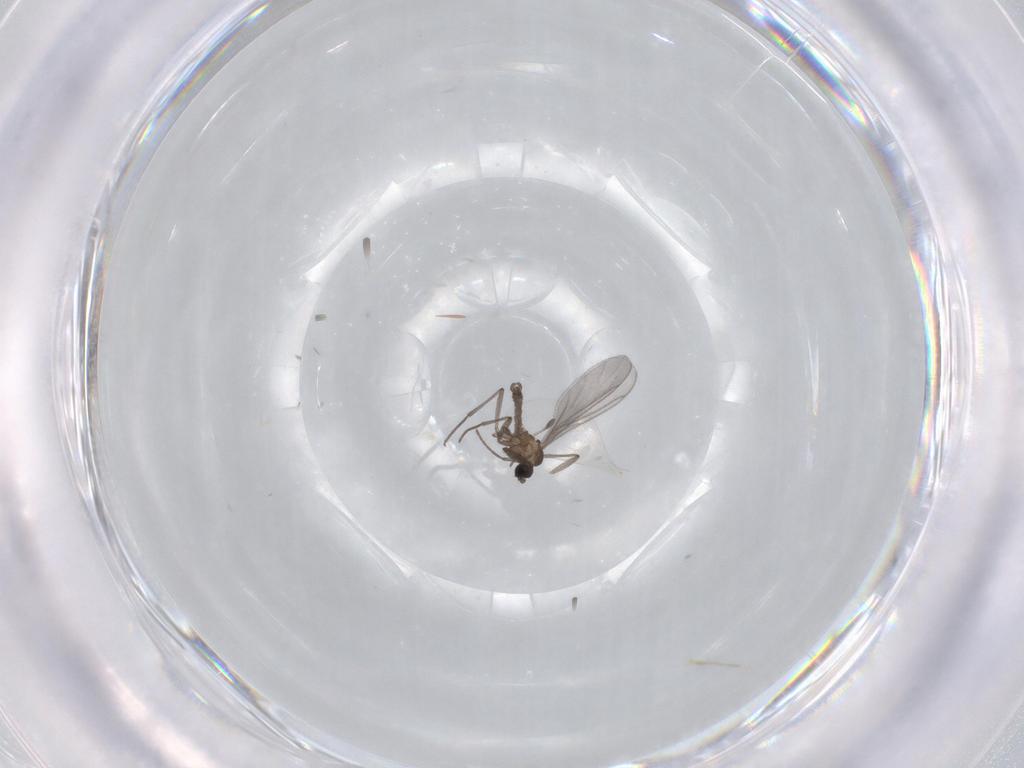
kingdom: Animalia
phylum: Arthropoda
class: Insecta
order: Diptera
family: Sciaridae
